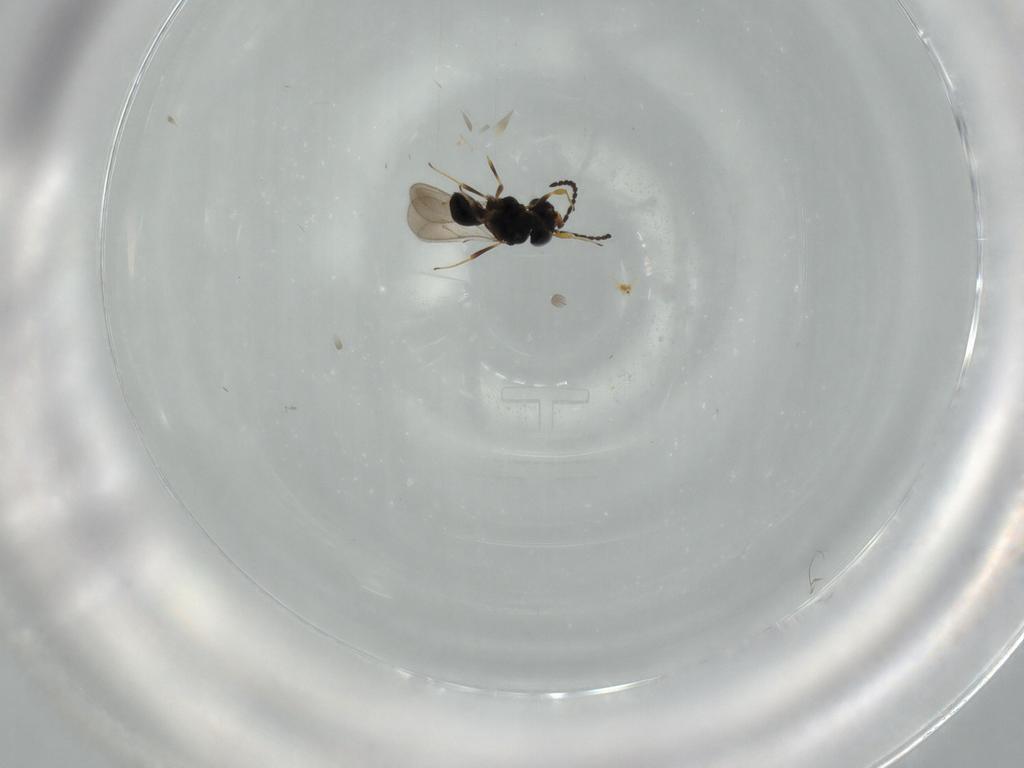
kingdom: Animalia
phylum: Arthropoda
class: Insecta
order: Hymenoptera
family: Scelionidae
